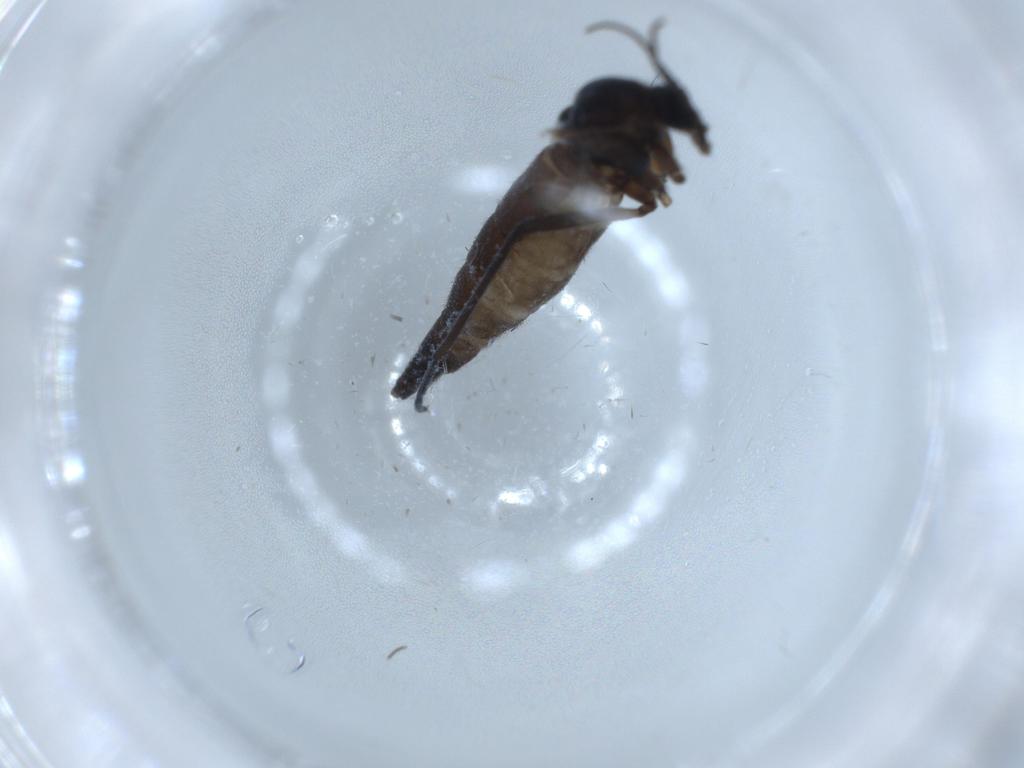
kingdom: Animalia
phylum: Arthropoda
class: Insecta
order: Diptera
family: Sciaridae
